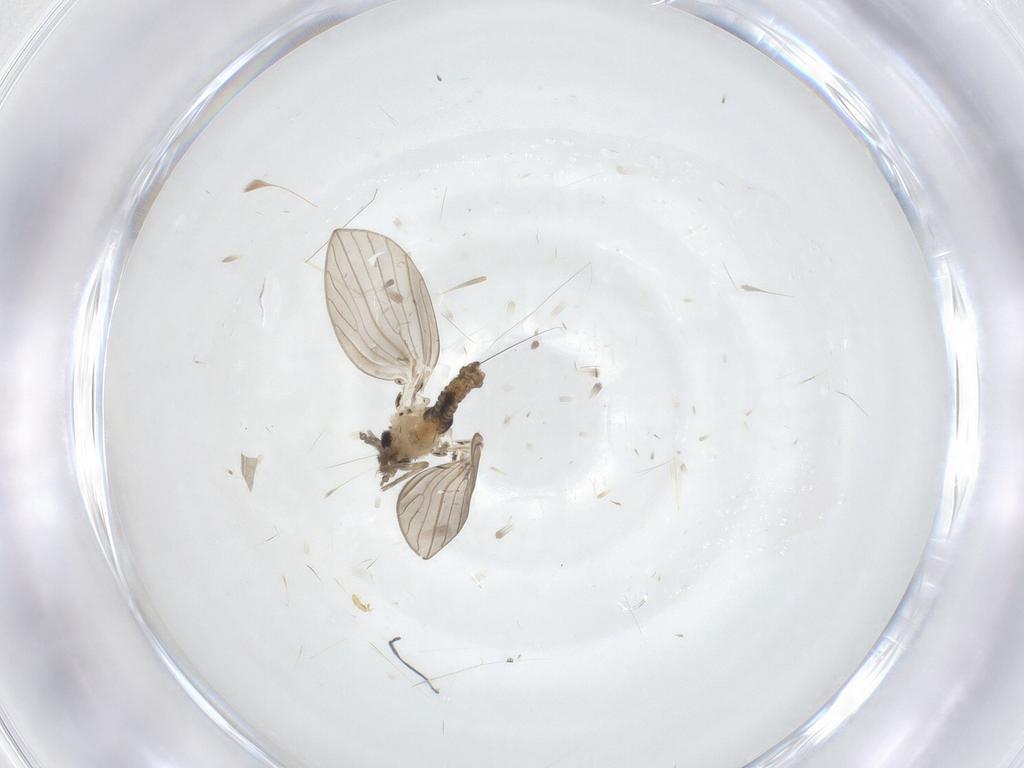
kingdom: Animalia
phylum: Arthropoda
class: Insecta
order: Diptera
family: Psychodidae
